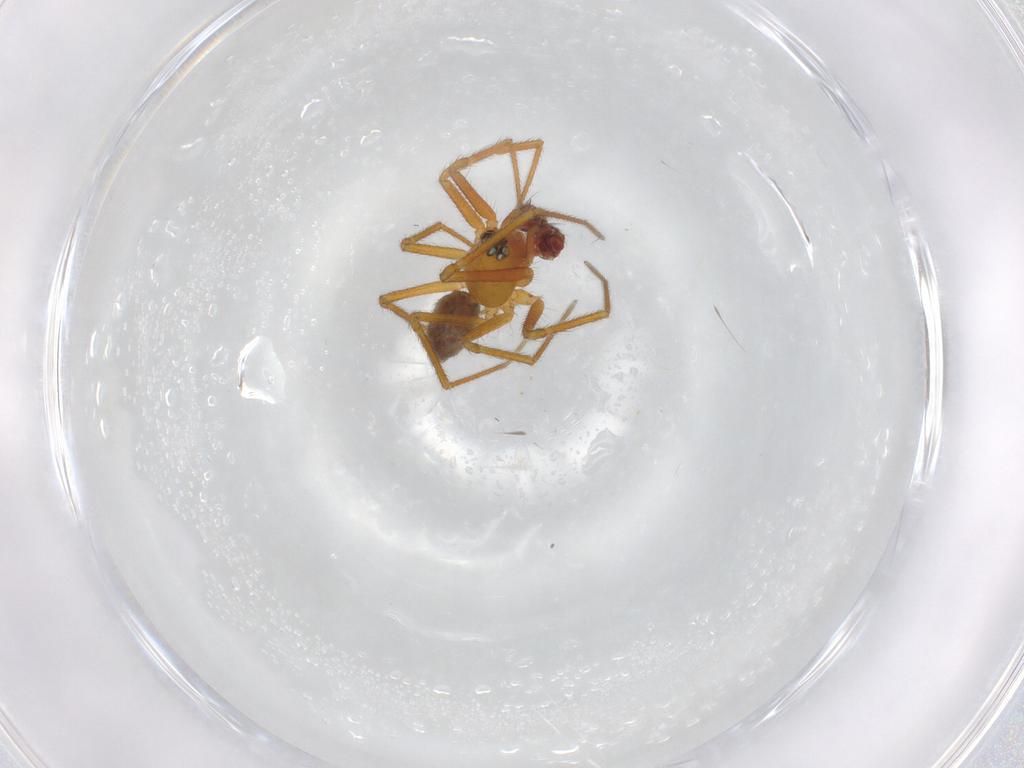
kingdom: Animalia
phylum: Arthropoda
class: Arachnida
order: Araneae
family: Linyphiidae
